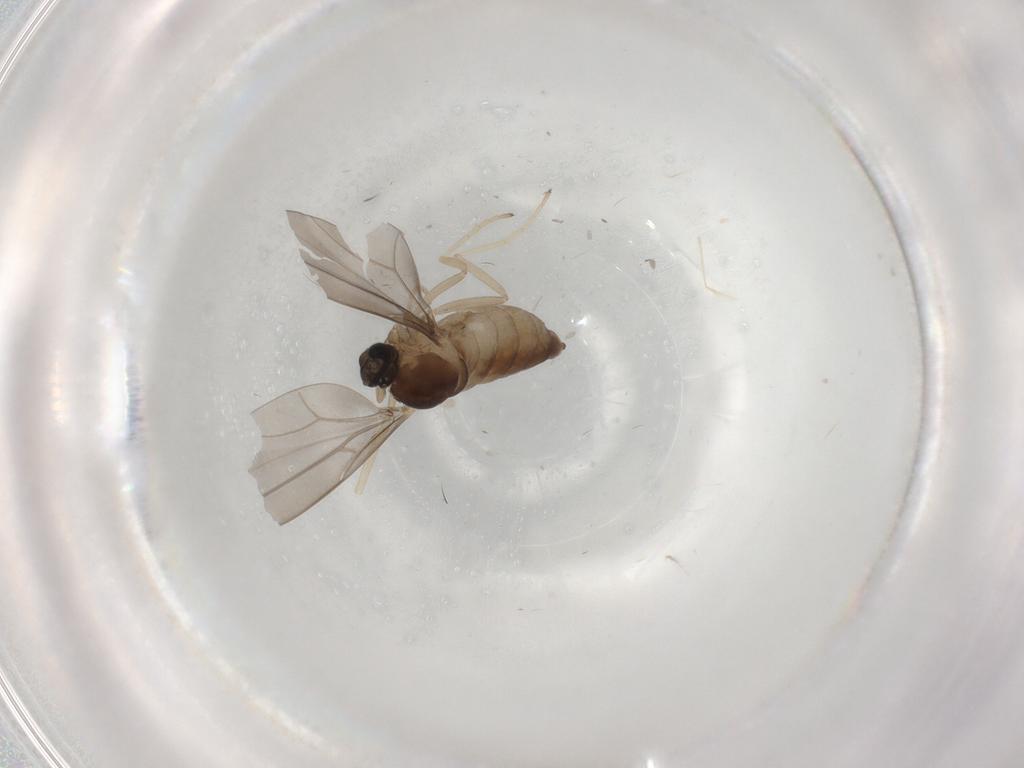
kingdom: Animalia
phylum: Arthropoda
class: Insecta
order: Diptera
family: Cecidomyiidae
